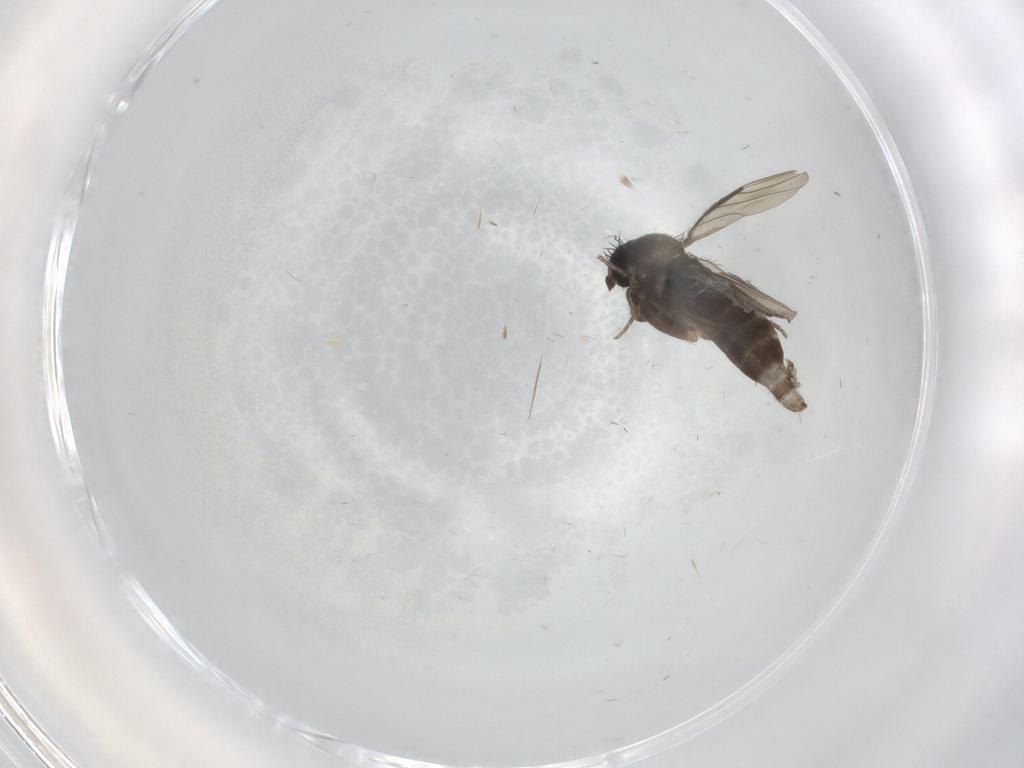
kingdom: Animalia
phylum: Arthropoda
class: Insecta
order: Diptera
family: Phoridae
